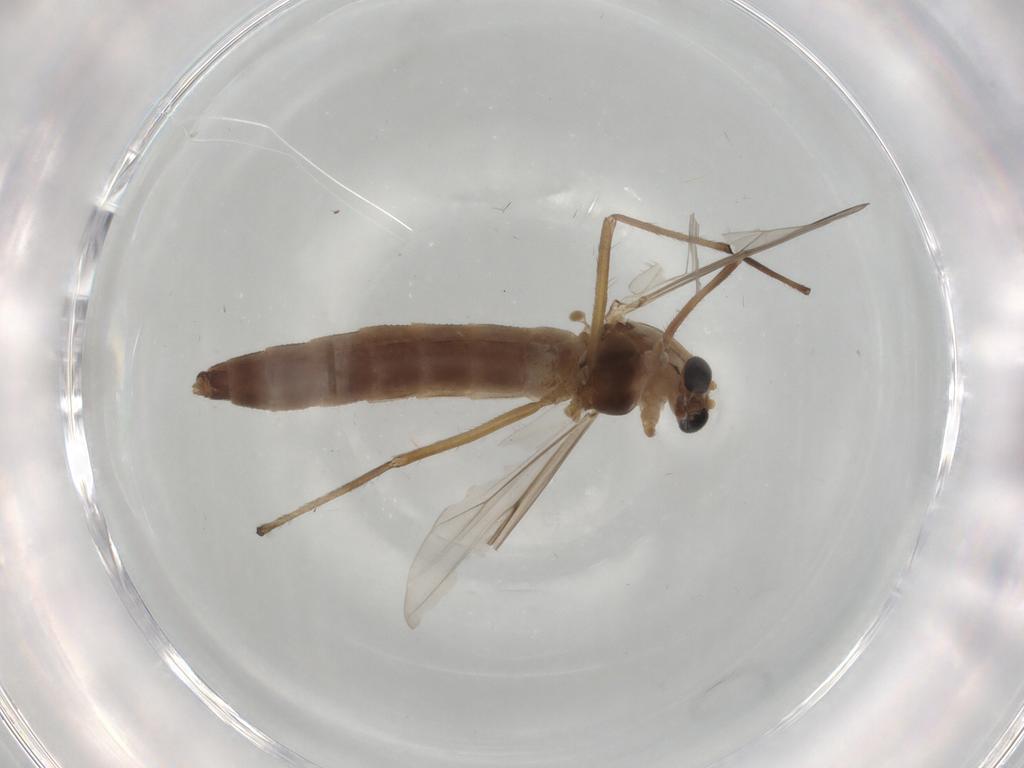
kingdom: Animalia
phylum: Arthropoda
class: Insecta
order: Diptera
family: Chironomidae
